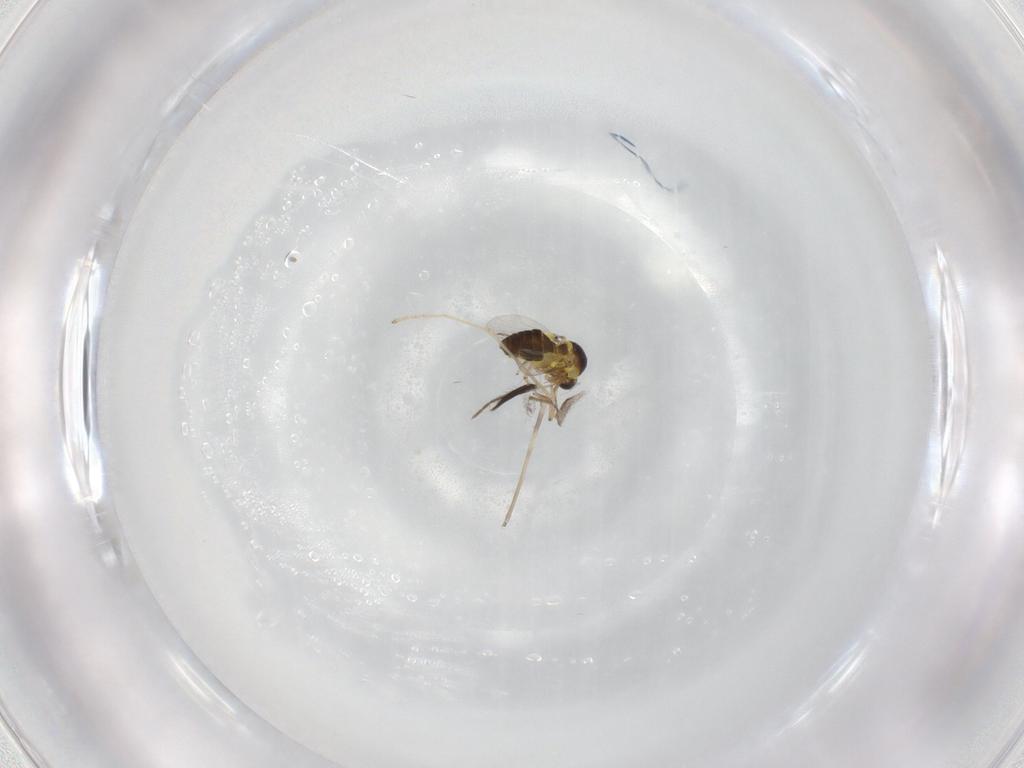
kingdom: Animalia
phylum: Arthropoda
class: Insecta
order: Diptera
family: Limoniidae
